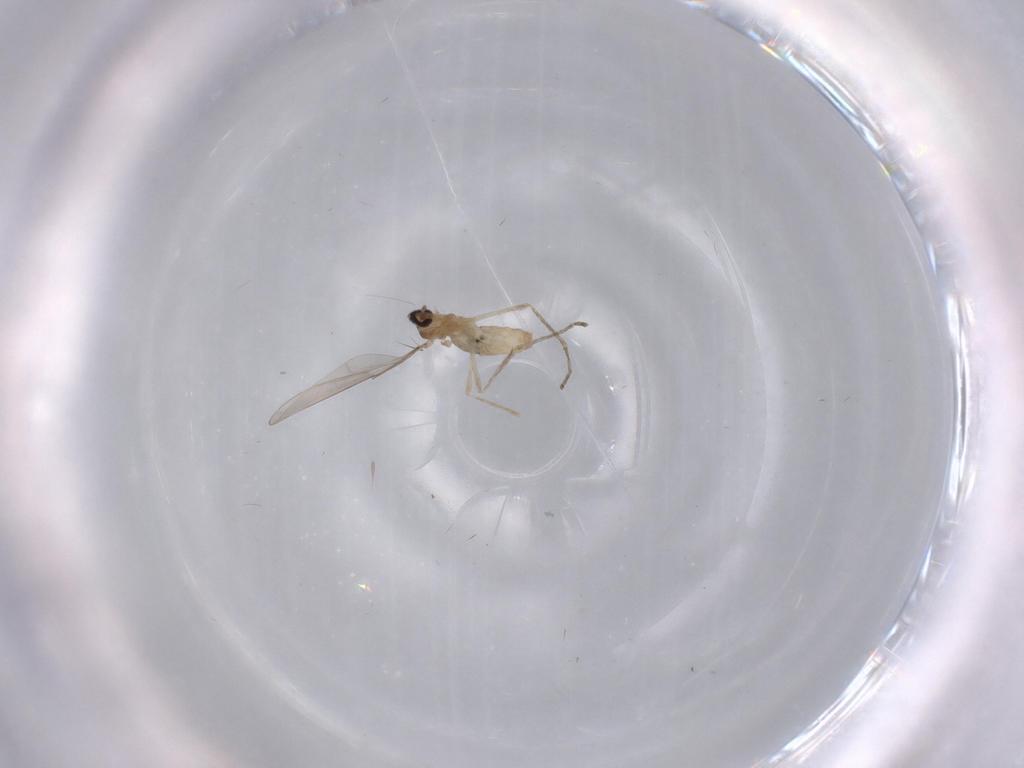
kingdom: Animalia
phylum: Arthropoda
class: Insecta
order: Diptera
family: Cecidomyiidae
